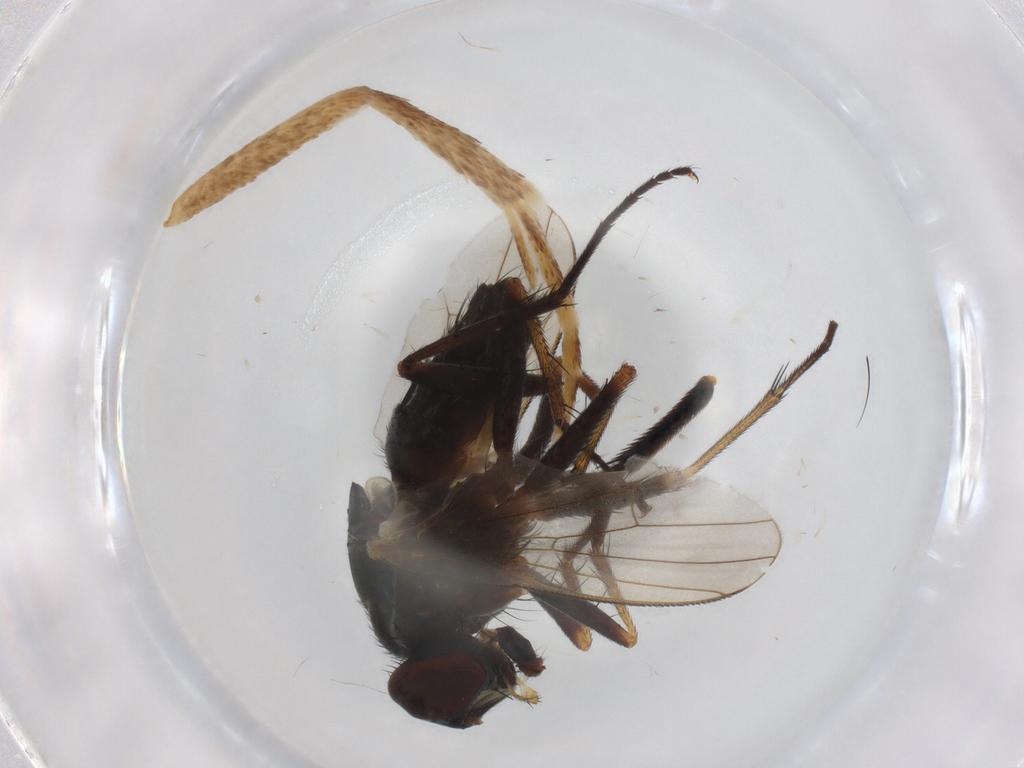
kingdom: Animalia
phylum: Arthropoda
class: Insecta
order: Diptera
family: Muscidae
